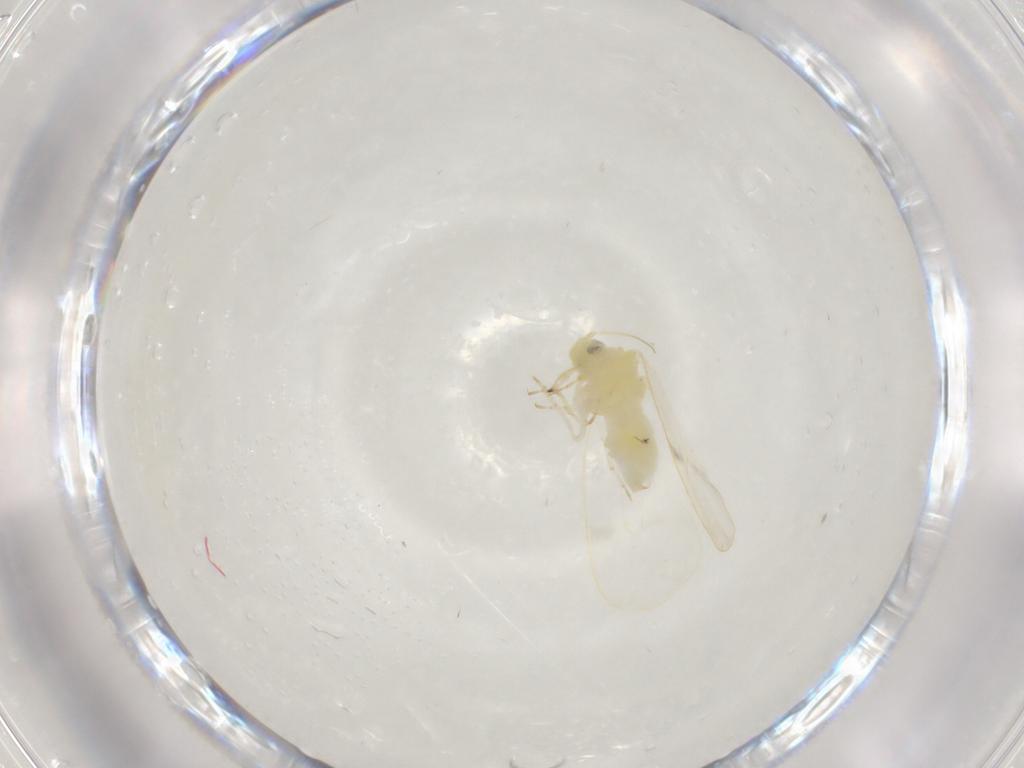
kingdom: Animalia
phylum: Arthropoda
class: Insecta
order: Hemiptera
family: Aleyrodidae
